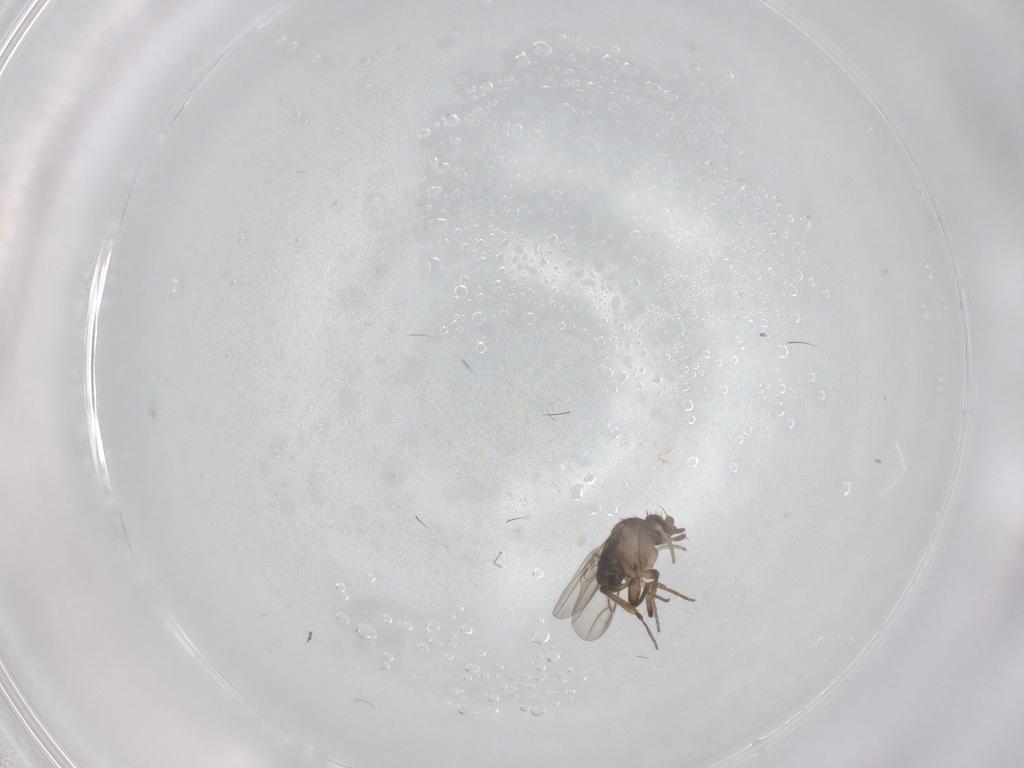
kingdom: Animalia
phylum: Arthropoda
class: Insecta
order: Diptera
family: Phoridae
